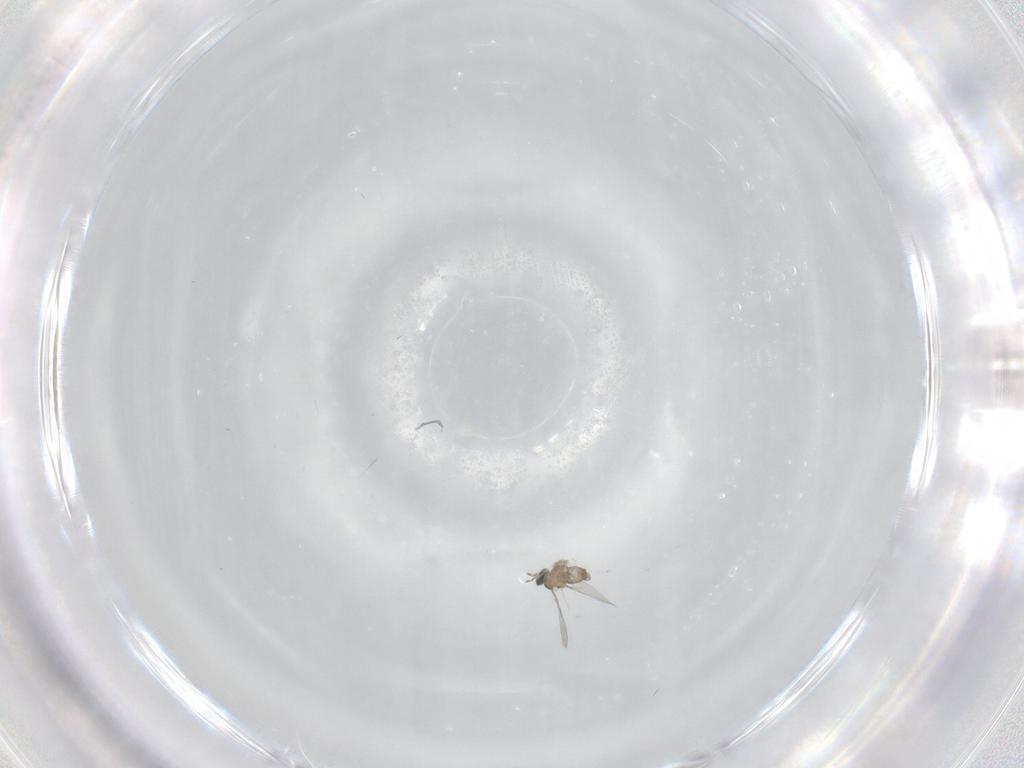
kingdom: Animalia
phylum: Arthropoda
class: Insecta
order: Diptera
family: Cecidomyiidae
